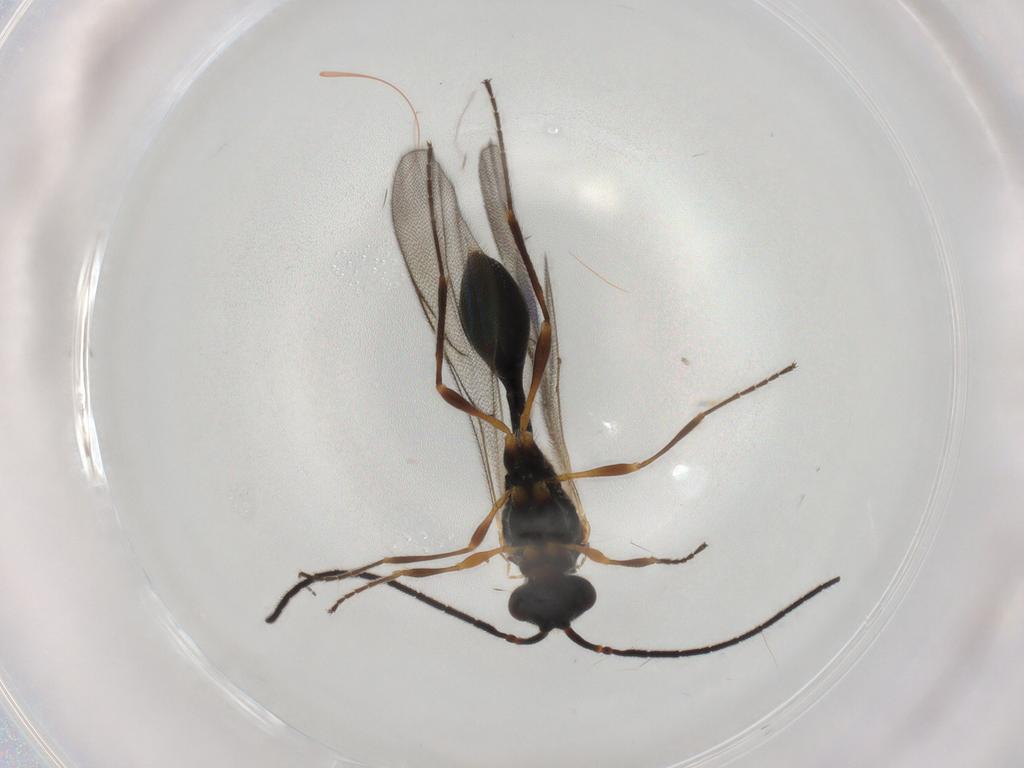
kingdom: Animalia
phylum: Arthropoda
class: Insecta
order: Hymenoptera
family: Diapriidae
